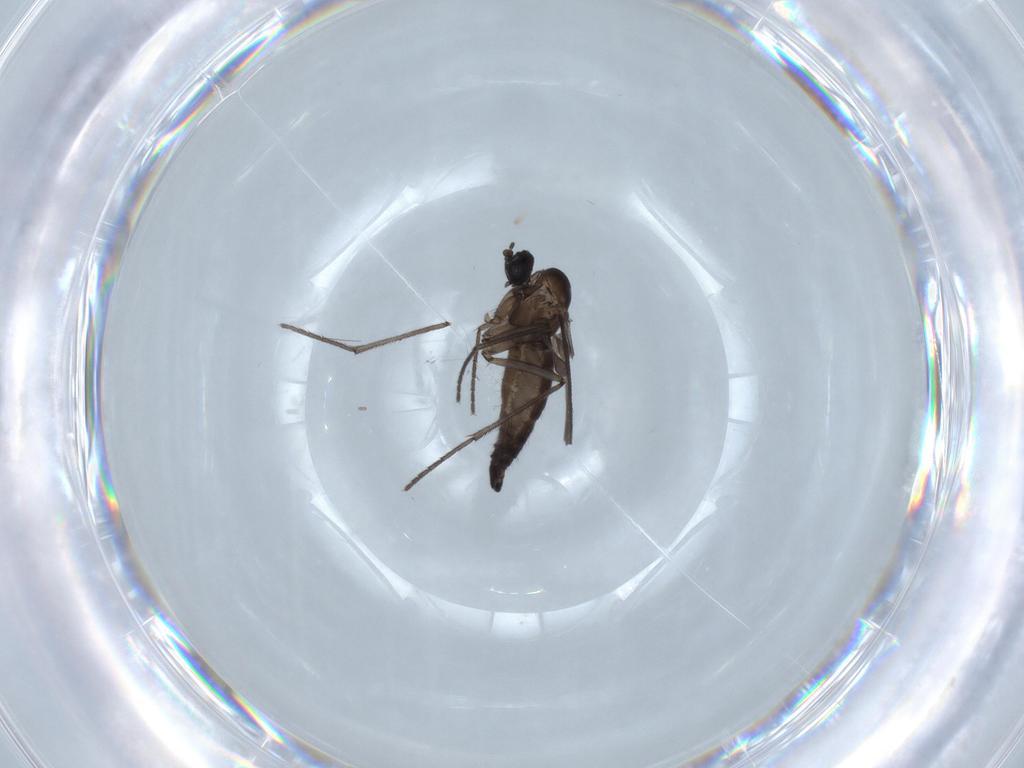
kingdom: Animalia
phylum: Arthropoda
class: Insecta
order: Diptera
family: Sciaridae
